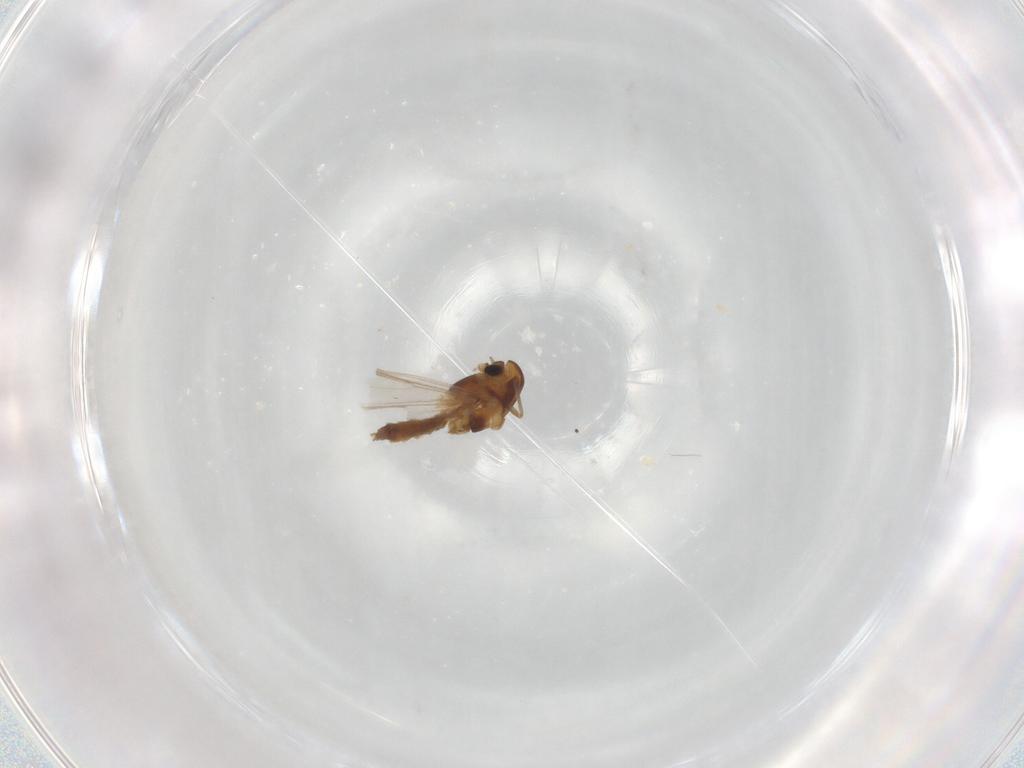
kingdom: Animalia
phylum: Arthropoda
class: Insecta
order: Diptera
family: Chironomidae
